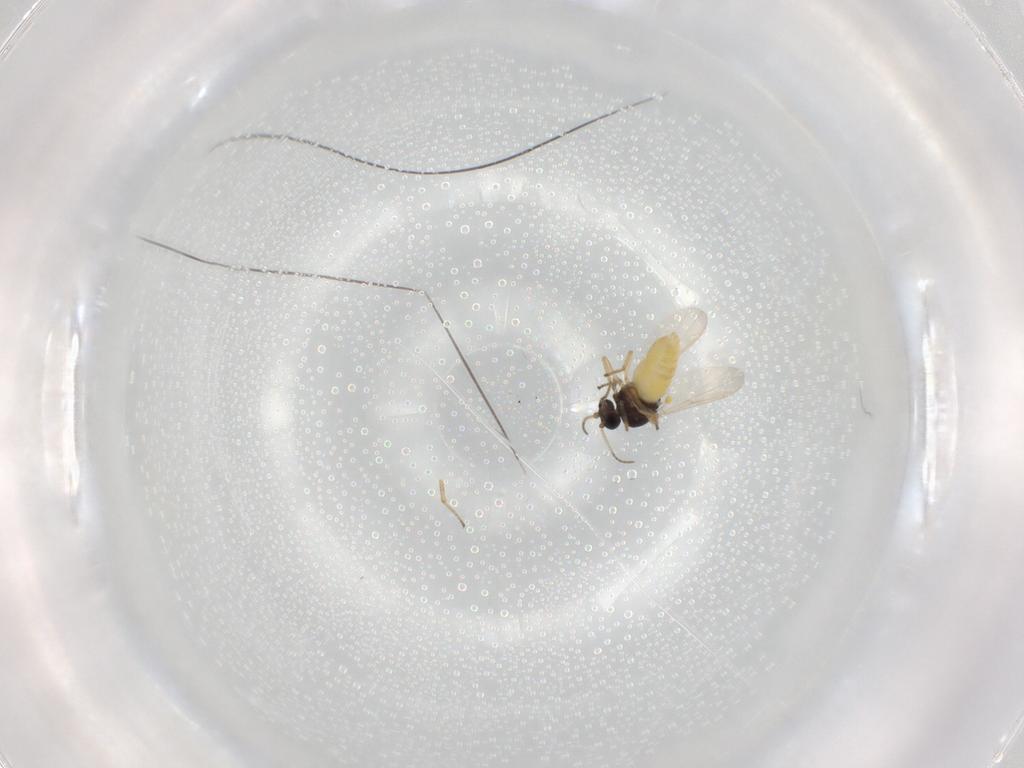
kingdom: Animalia
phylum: Arthropoda
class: Insecta
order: Diptera
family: Ceratopogonidae
